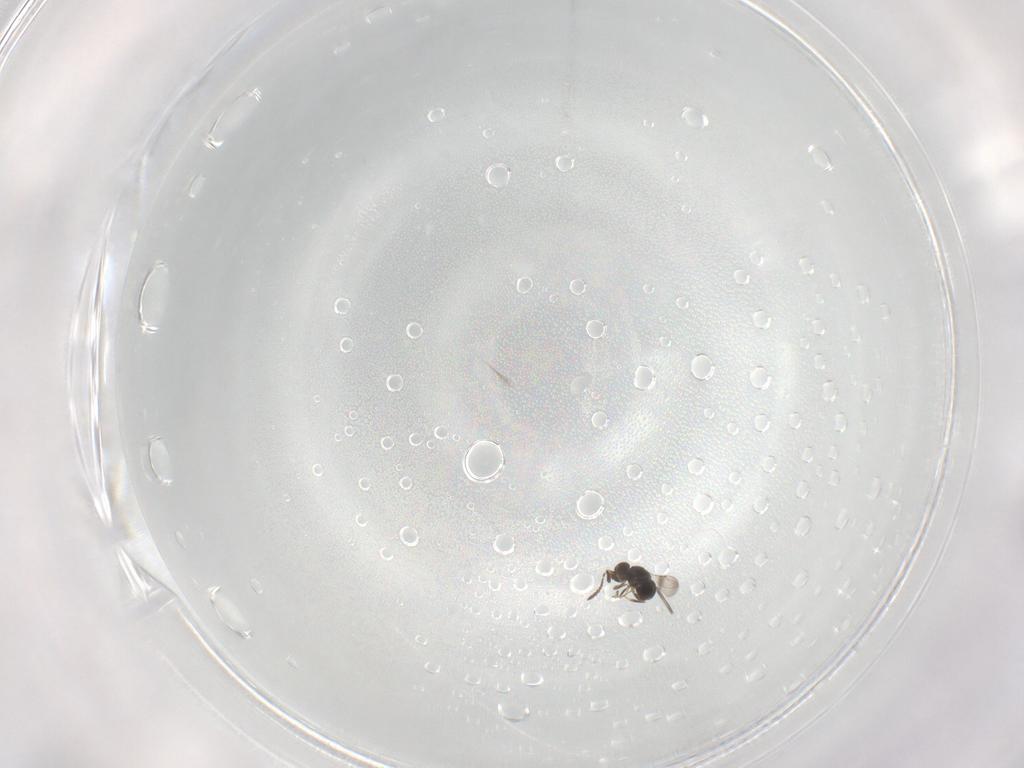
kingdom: Animalia
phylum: Arthropoda
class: Insecta
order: Hymenoptera
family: Ceraphronidae
